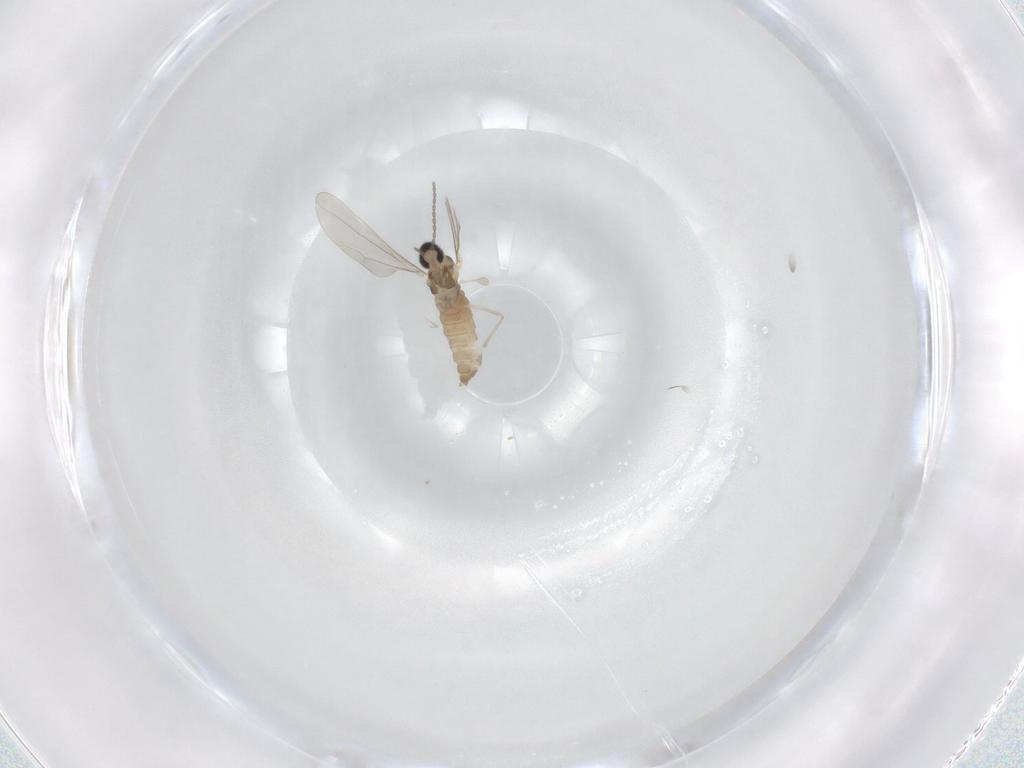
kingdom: Animalia
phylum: Arthropoda
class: Insecta
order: Diptera
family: Cecidomyiidae
